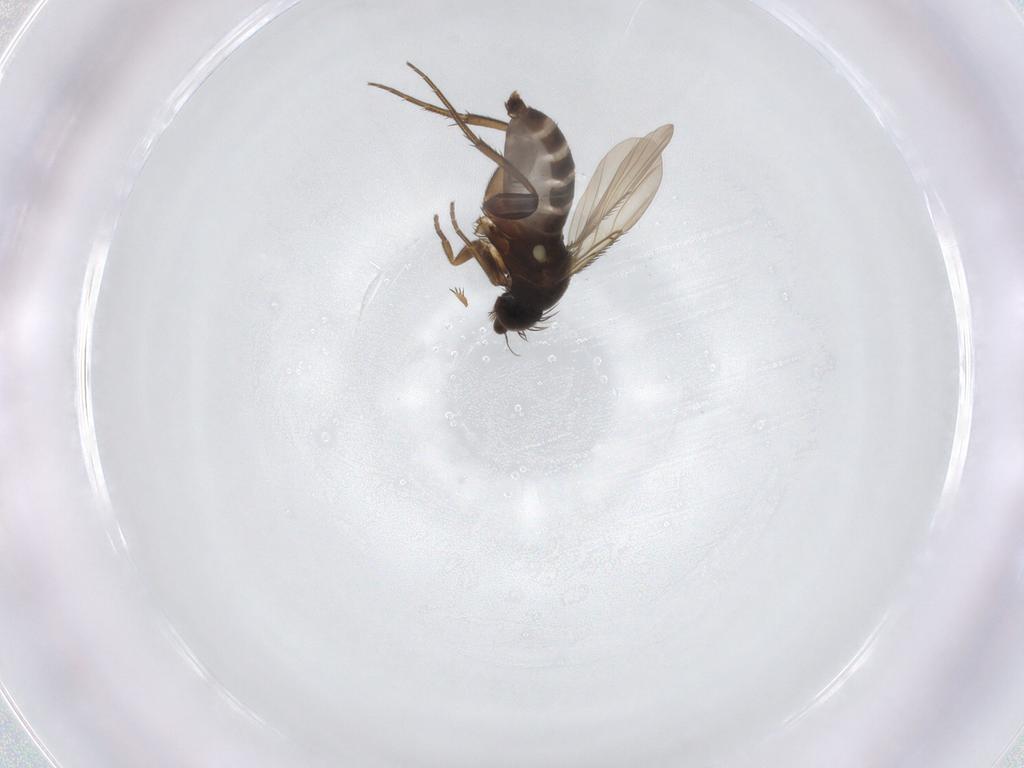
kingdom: Animalia
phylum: Arthropoda
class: Insecta
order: Diptera
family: Phoridae
